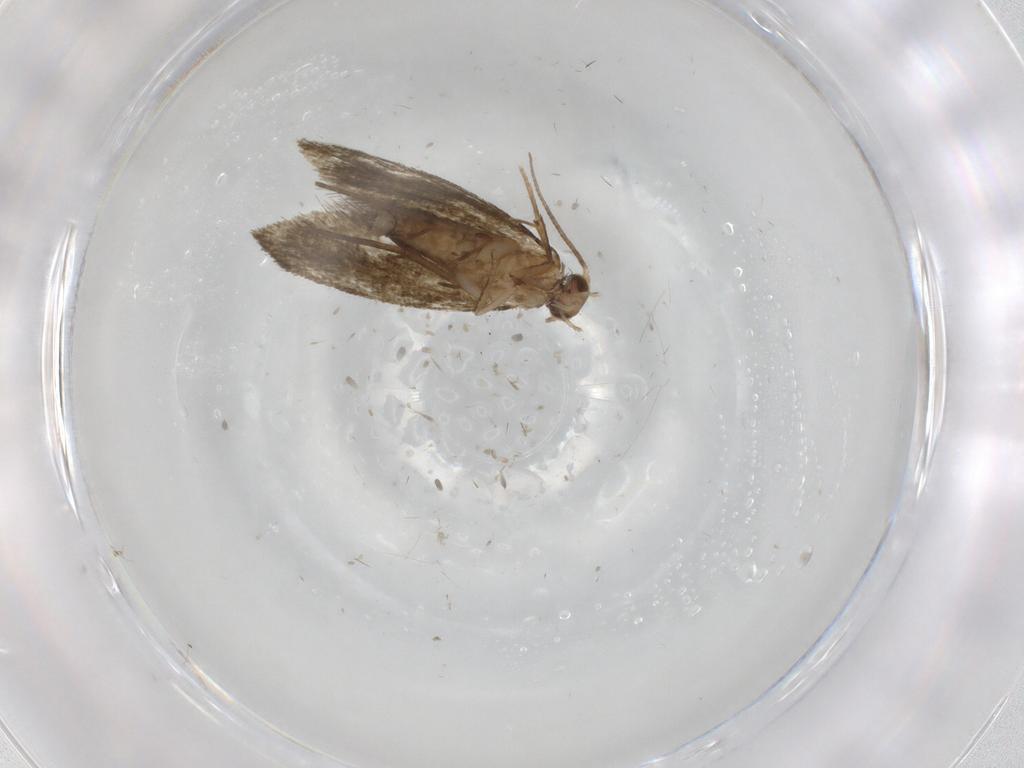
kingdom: Animalia
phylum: Arthropoda
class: Insecta
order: Lepidoptera
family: Tineidae
